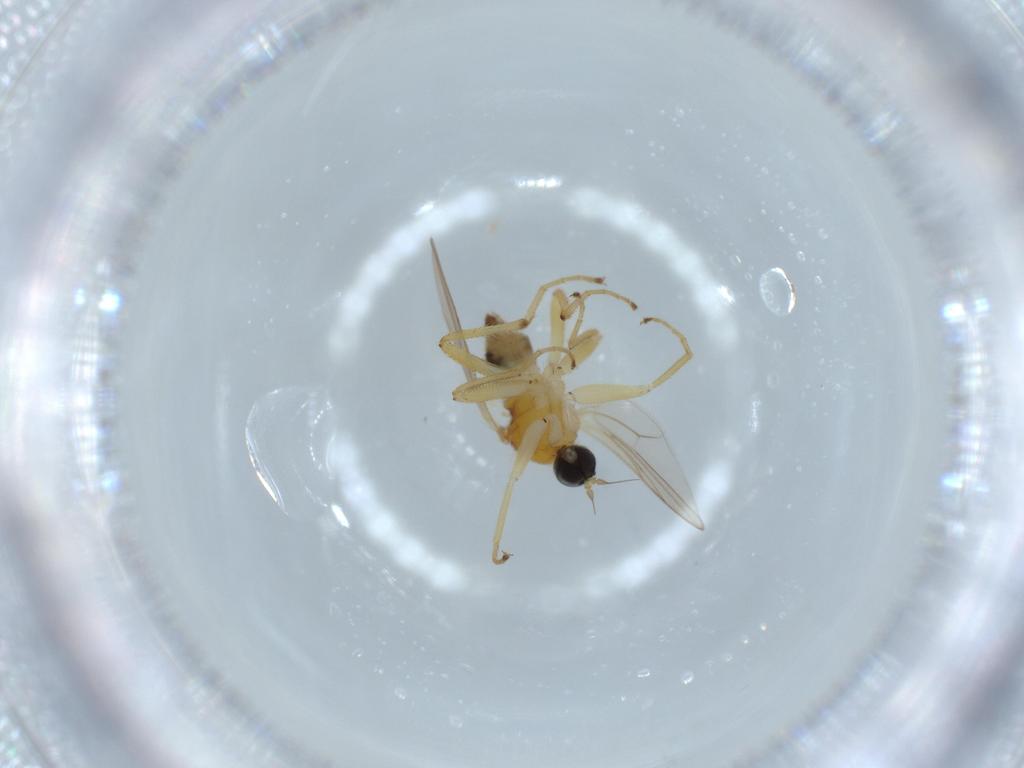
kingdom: Animalia
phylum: Arthropoda
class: Insecta
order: Diptera
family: Hybotidae
